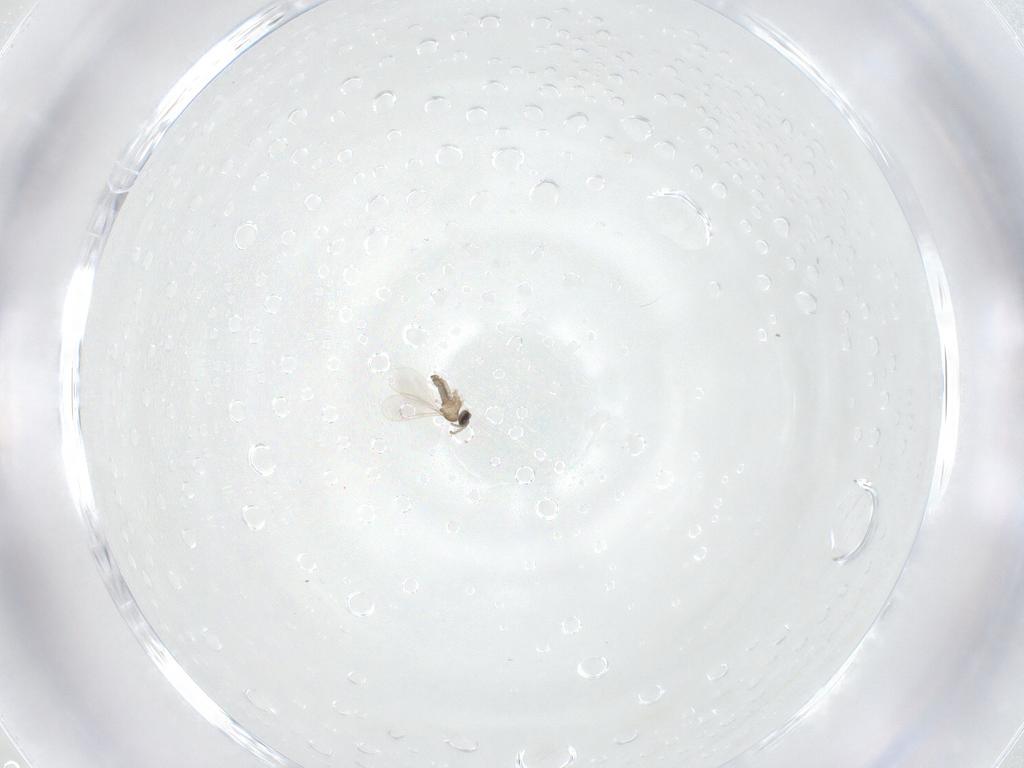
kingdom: Animalia
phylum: Arthropoda
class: Insecta
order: Diptera
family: Cecidomyiidae
